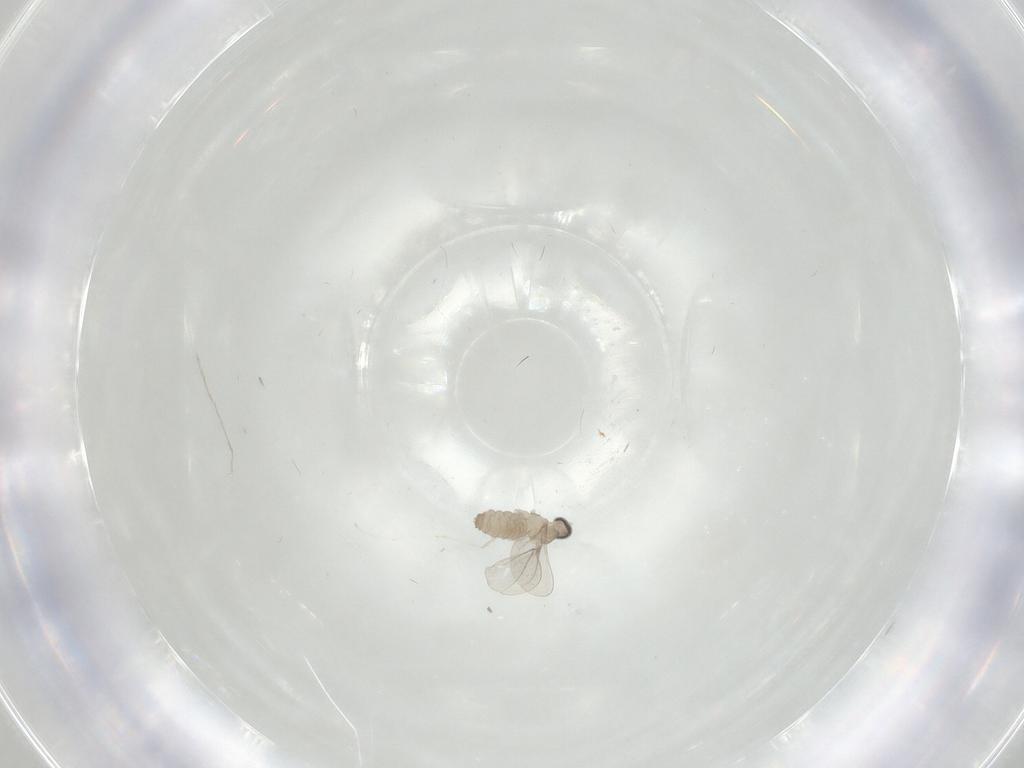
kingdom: Animalia
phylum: Arthropoda
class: Insecta
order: Diptera
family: Cecidomyiidae
